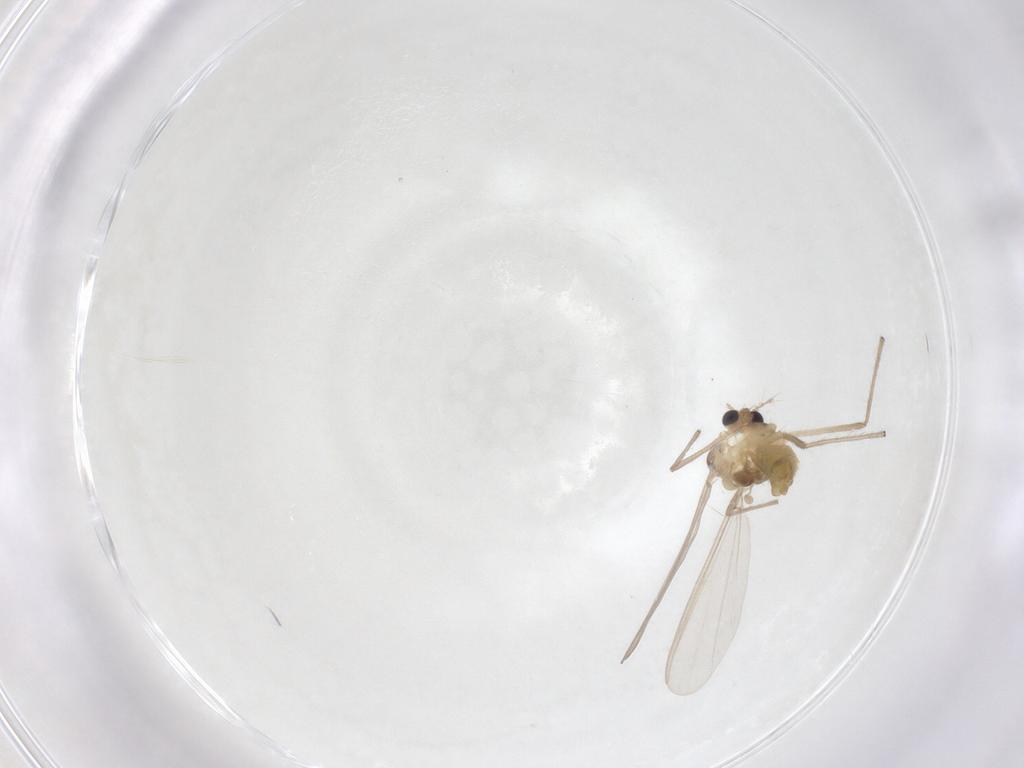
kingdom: Animalia
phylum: Arthropoda
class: Insecta
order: Diptera
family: Chironomidae
